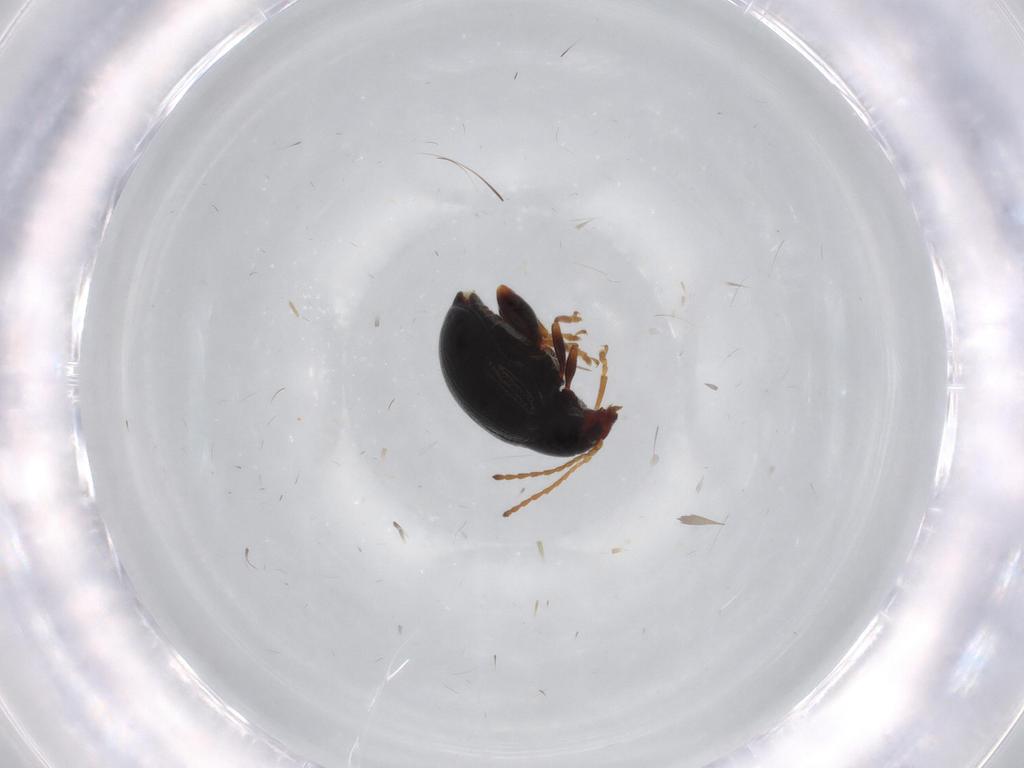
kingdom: Animalia
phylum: Arthropoda
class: Insecta
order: Coleoptera
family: Chrysomelidae
